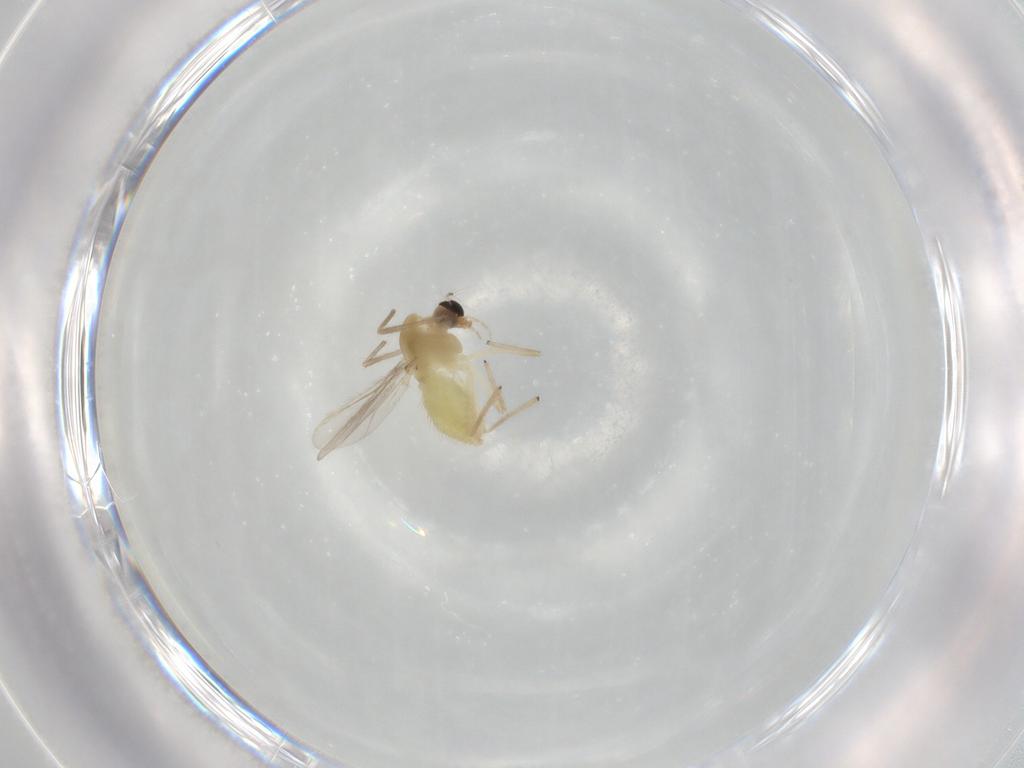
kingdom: Animalia
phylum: Arthropoda
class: Insecta
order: Diptera
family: Chironomidae
